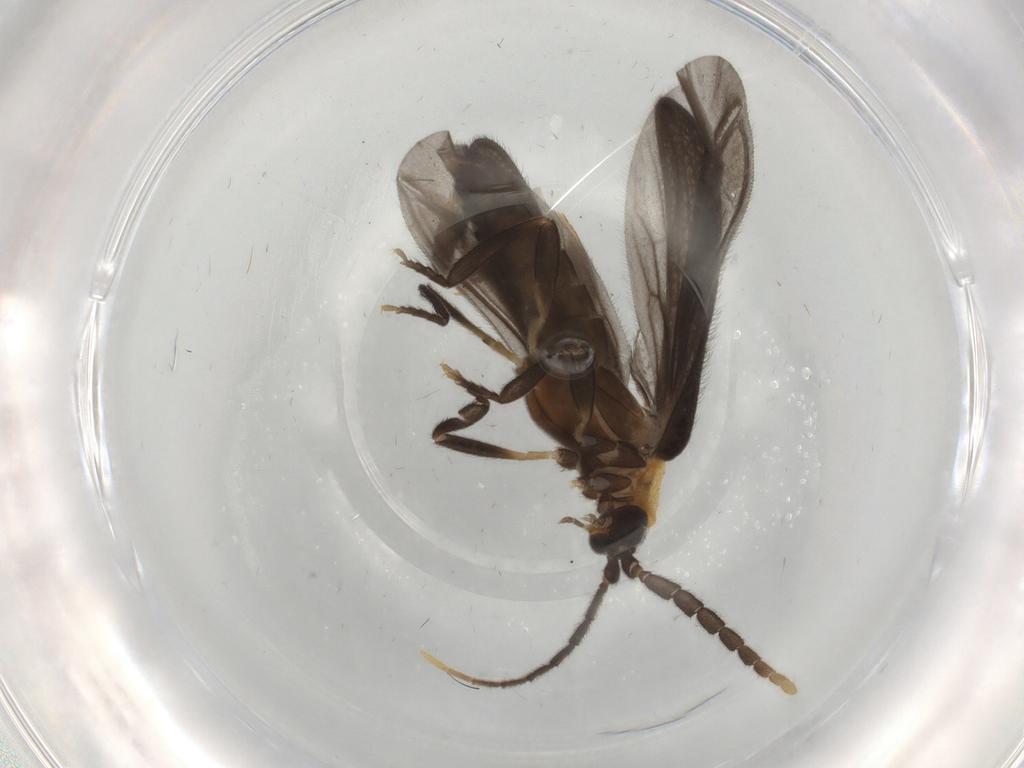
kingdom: Animalia
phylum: Arthropoda
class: Insecta
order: Coleoptera
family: Lycidae
